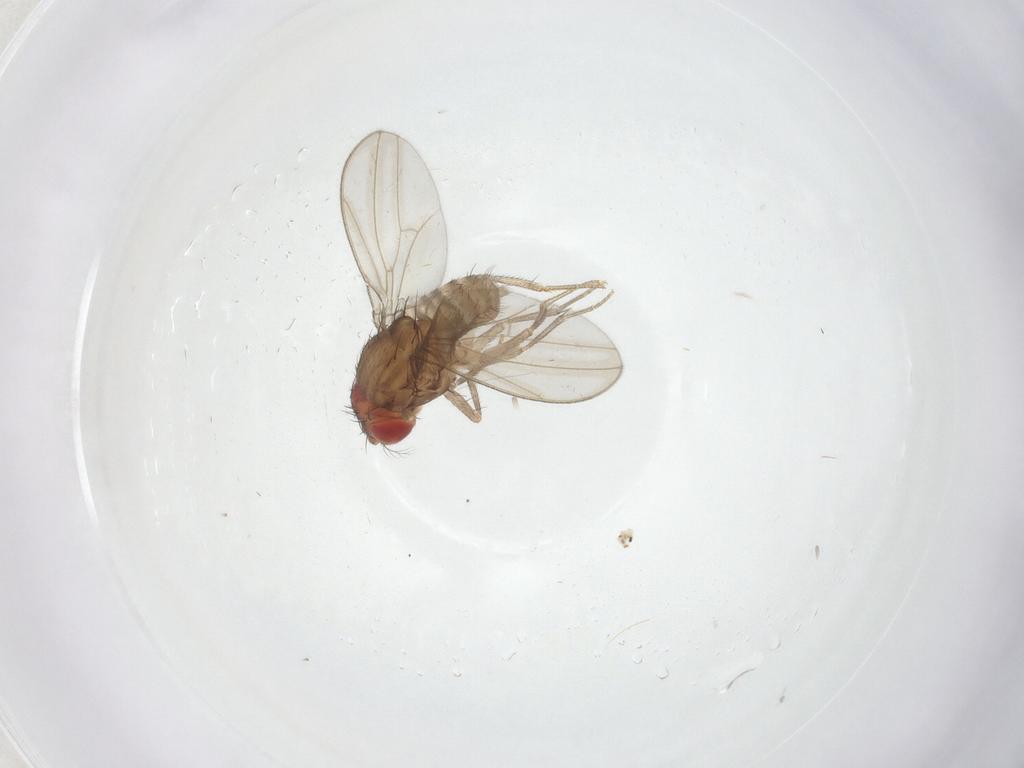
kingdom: Animalia
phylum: Arthropoda
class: Insecta
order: Diptera
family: Drosophilidae
